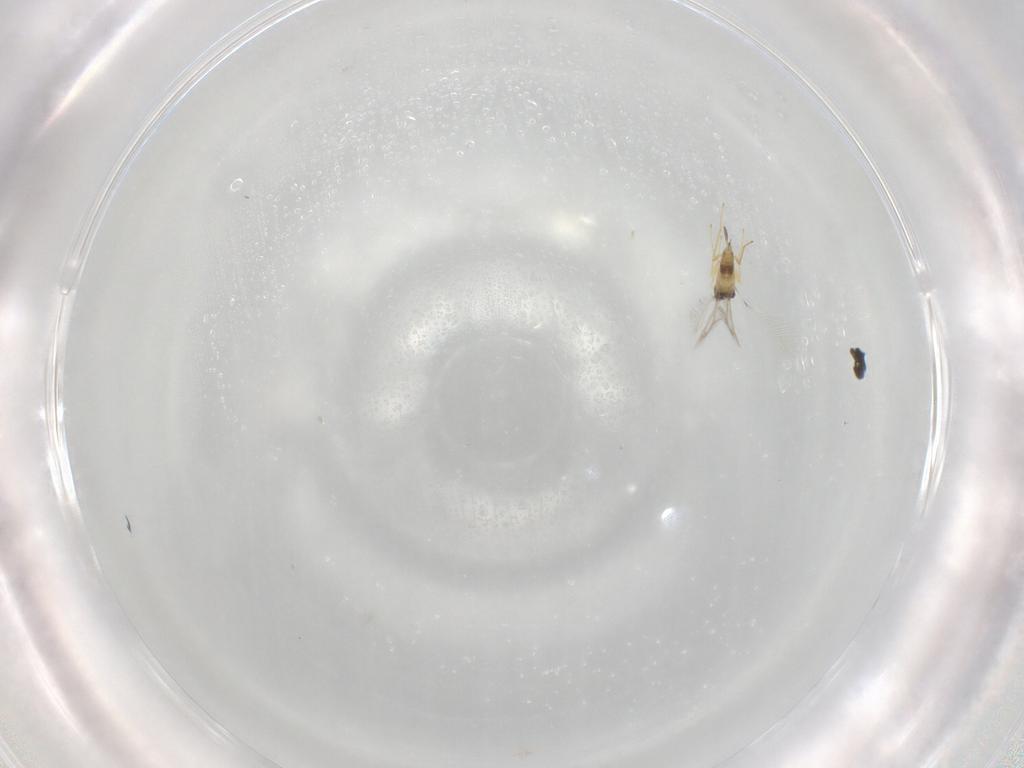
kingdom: Animalia
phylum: Arthropoda
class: Insecta
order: Hymenoptera
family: Mymaridae
